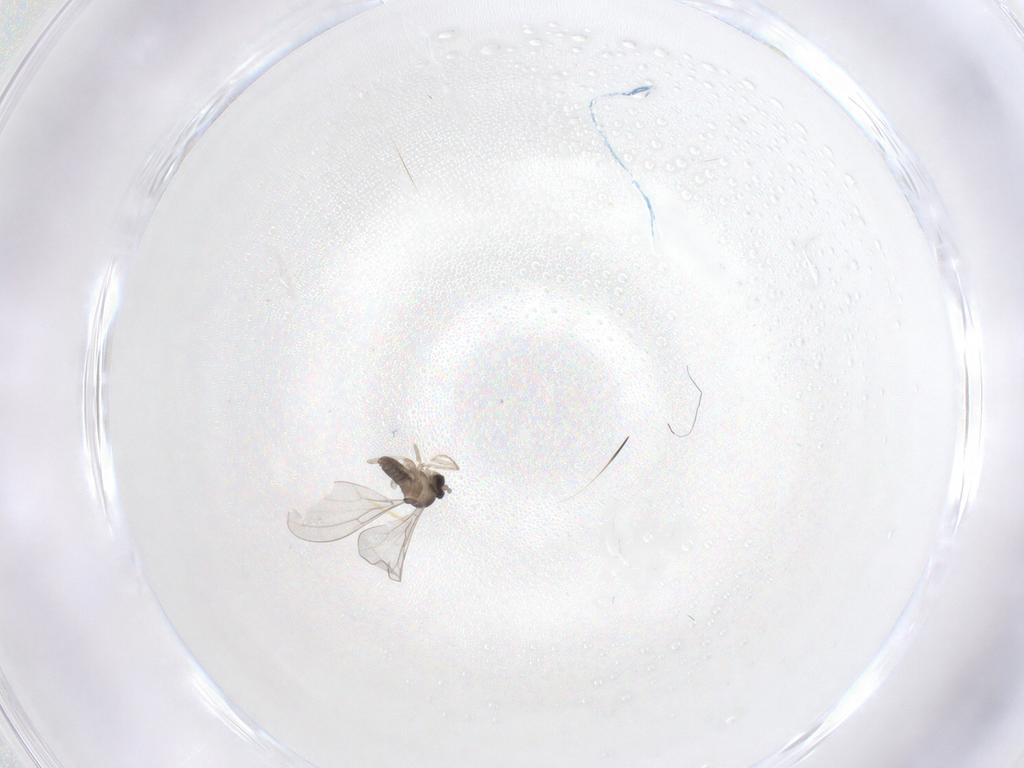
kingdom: Animalia
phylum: Arthropoda
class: Insecta
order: Diptera
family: Cecidomyiidae
